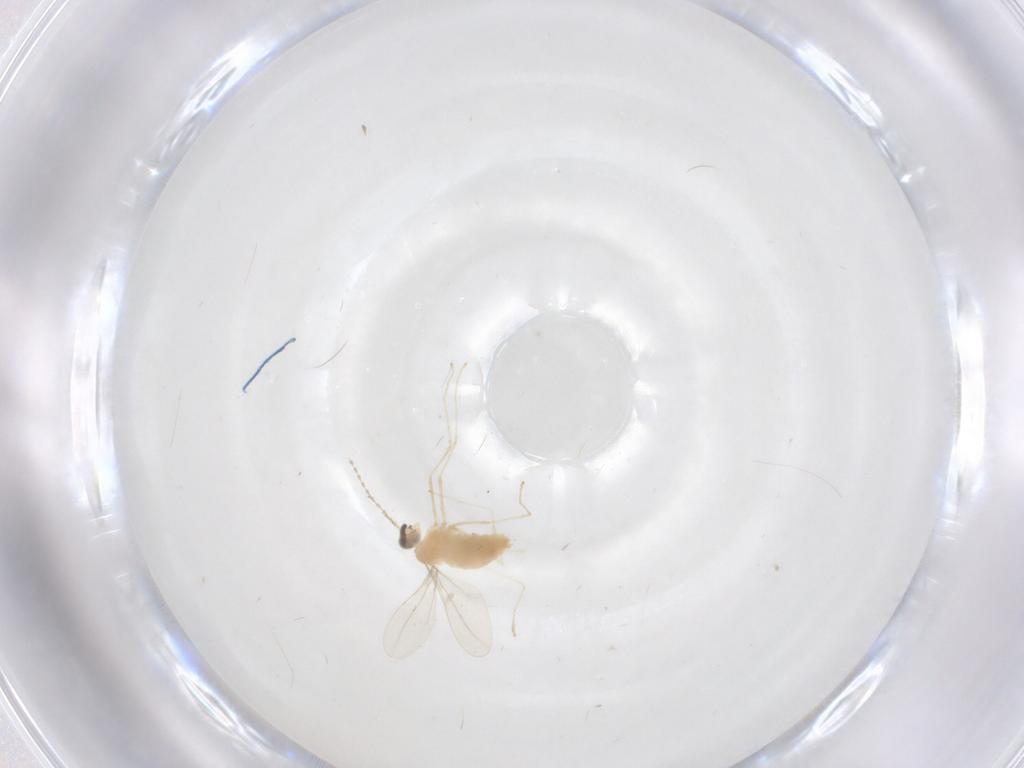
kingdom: Animalia
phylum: Arthropoda
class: Insecta
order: Diptera
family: Cecidomyiidae
